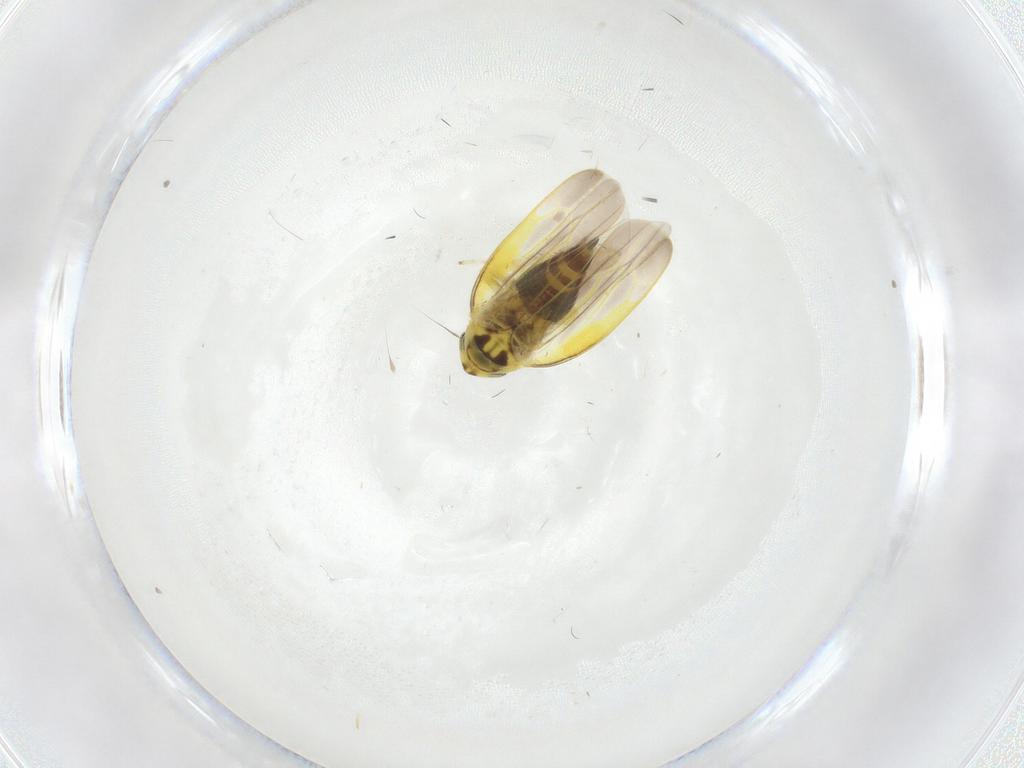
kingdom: Animalia
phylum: Arthropoda
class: Insecta
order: Hemiptera
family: Cicadellidae
